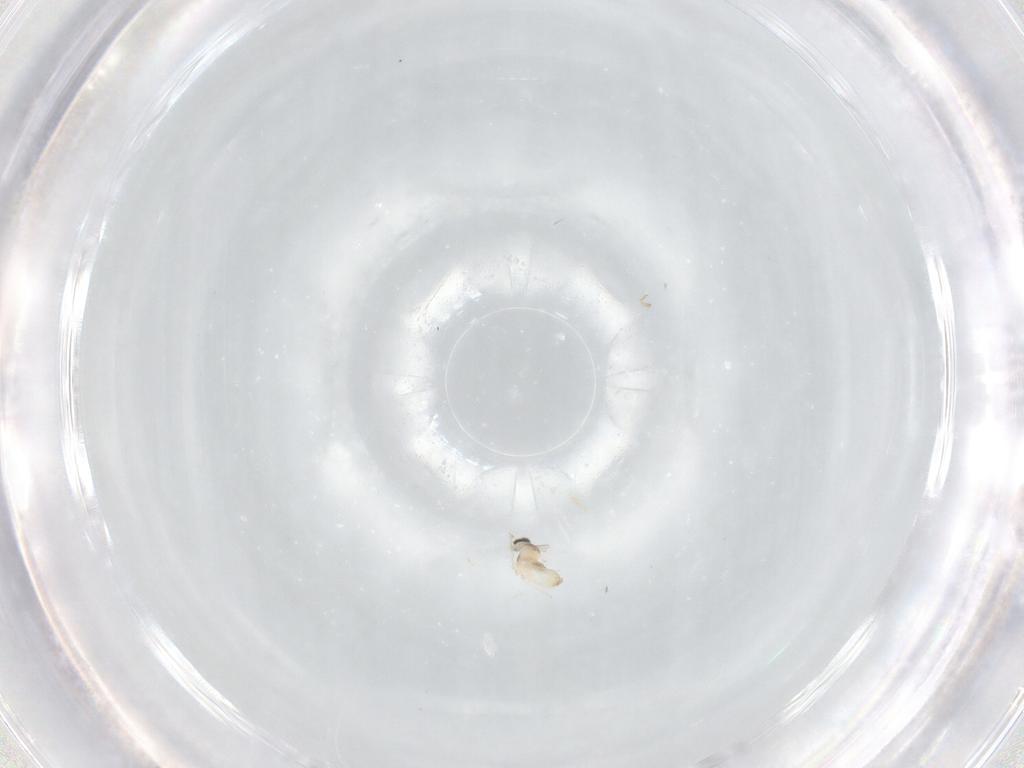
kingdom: Animalia
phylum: Arthropoda
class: Insecta
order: Diptera
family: Cecidomyiidae
